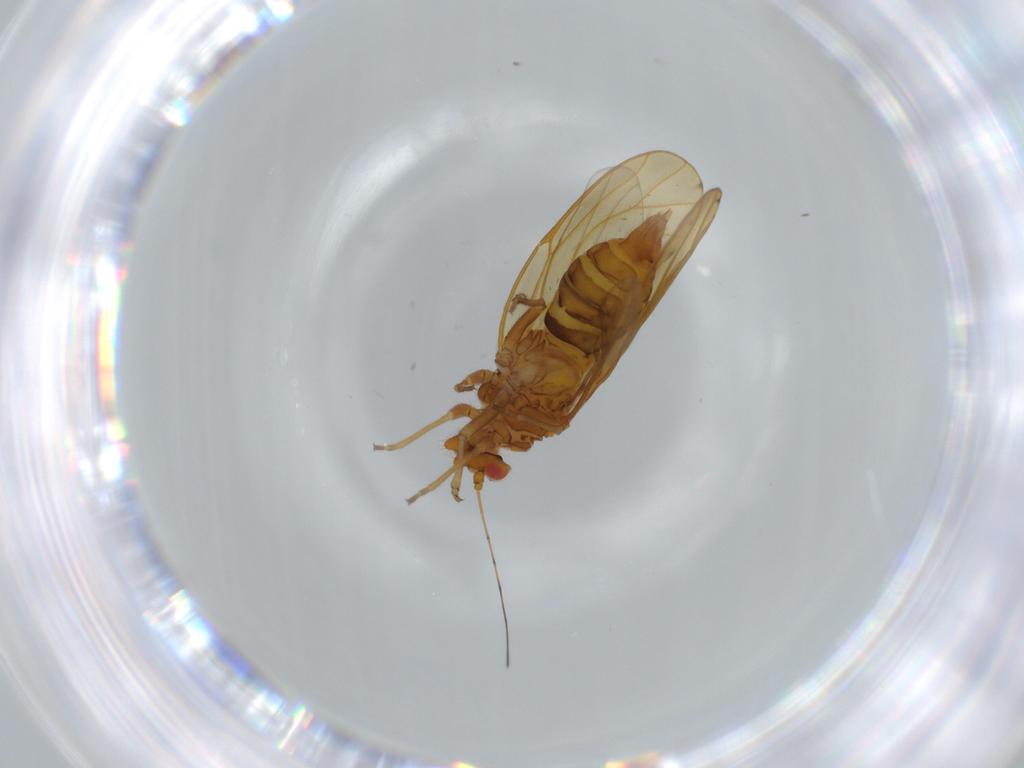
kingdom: Animalia
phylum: Arthropoda
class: Insecta
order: Hemiptera
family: Psylloidea_incertae_sedis
